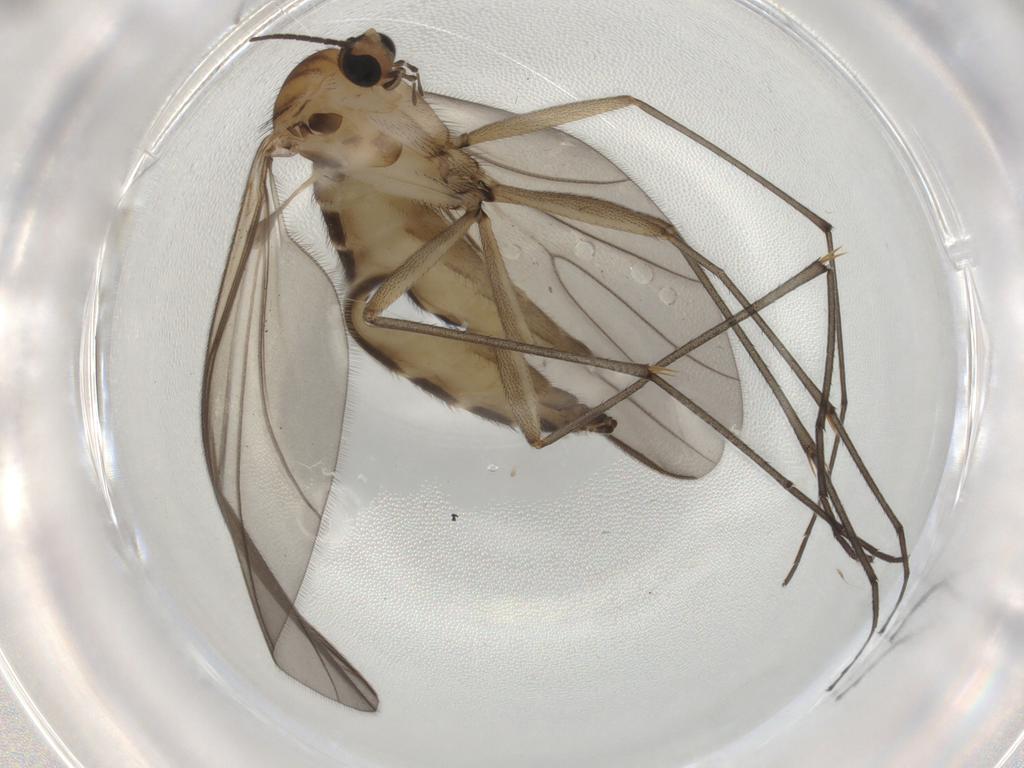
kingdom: Animalia
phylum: Arthropoda
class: Insecta
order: Diptera
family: Sciaridae
